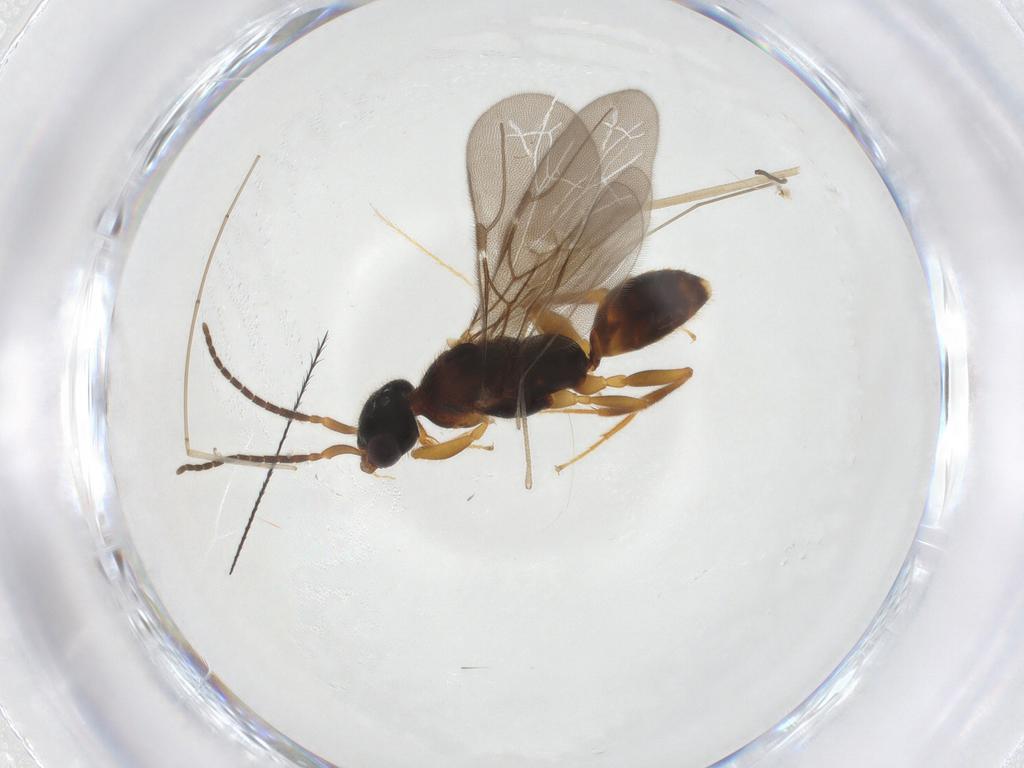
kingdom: Animalia
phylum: Arthropoda
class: Insecta
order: Hymenoptera
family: Bethylidae
